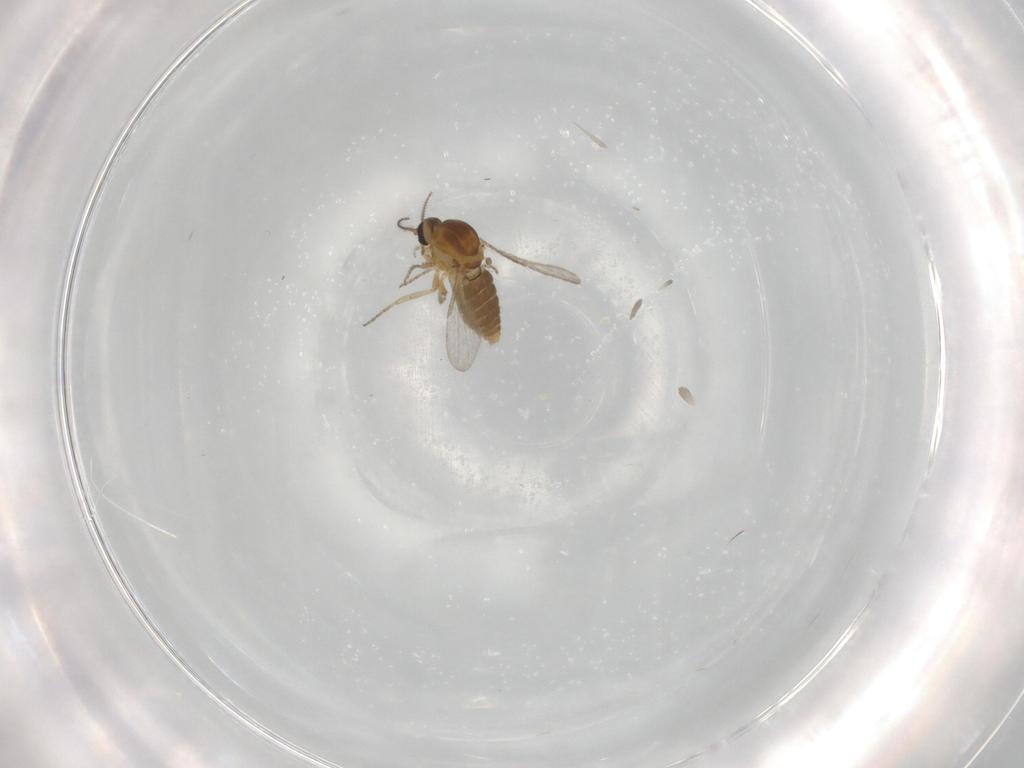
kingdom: Animalia
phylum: Arthropoda
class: Insecta
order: Diptera
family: Ceratopogonidae
